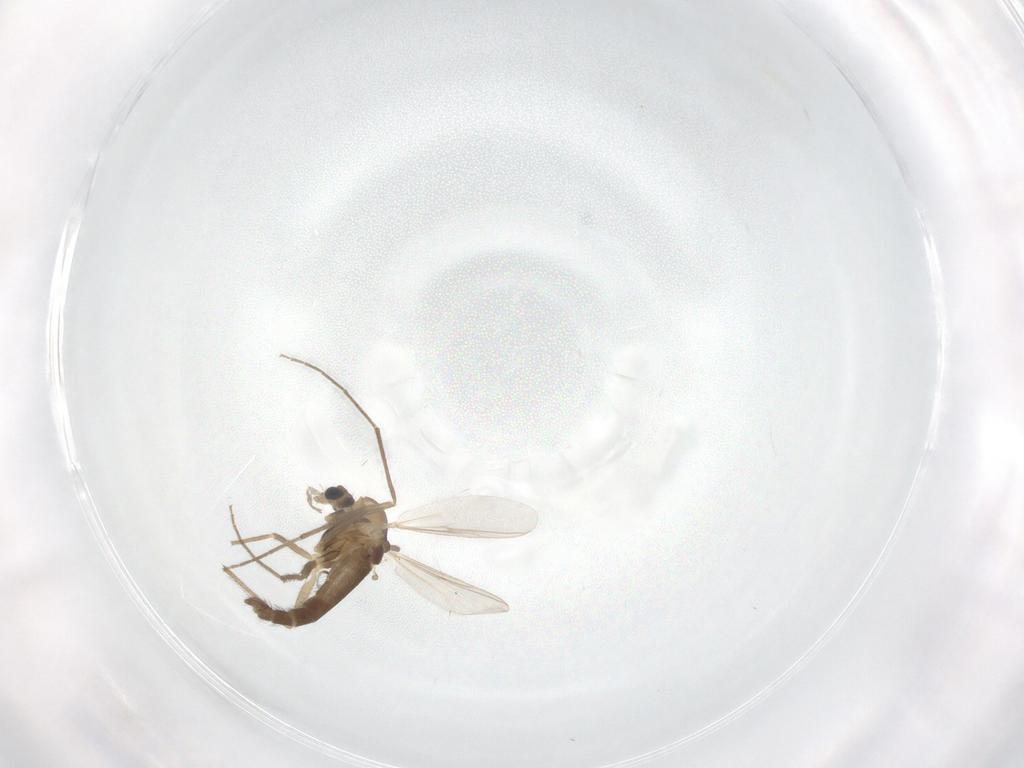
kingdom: Animalia
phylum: Arthropoda
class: Insecta
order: Diptera
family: Chironomidae
